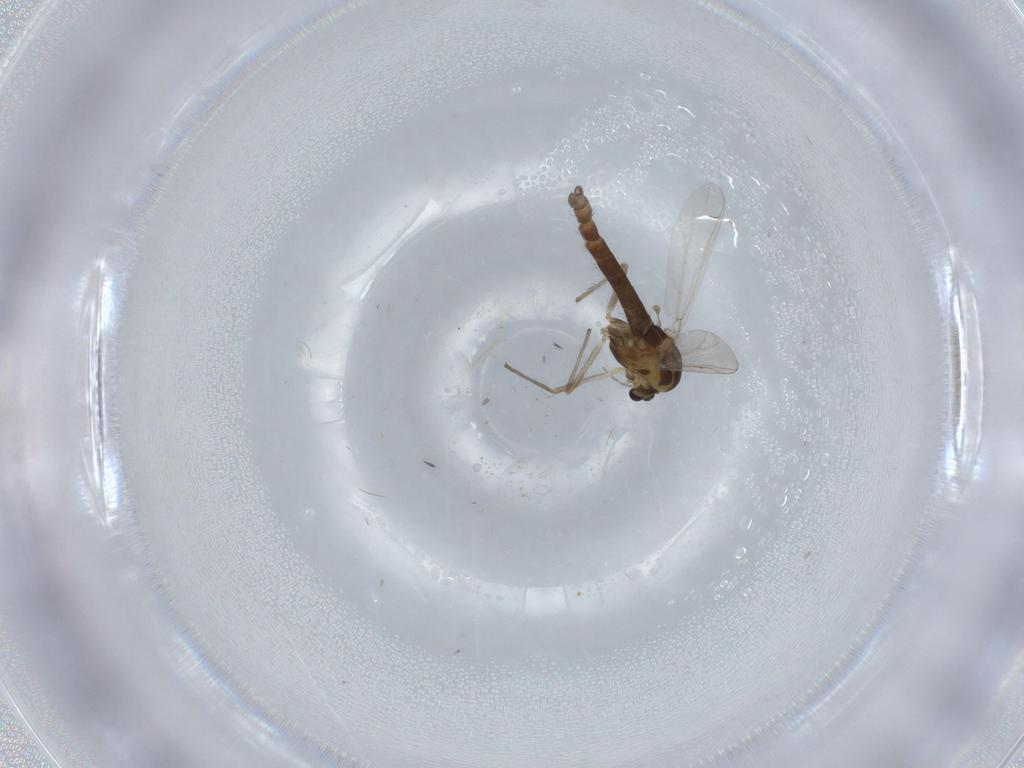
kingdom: Animalia
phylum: Arthropoda
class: Insecta
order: Diptera
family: Chironomidae
